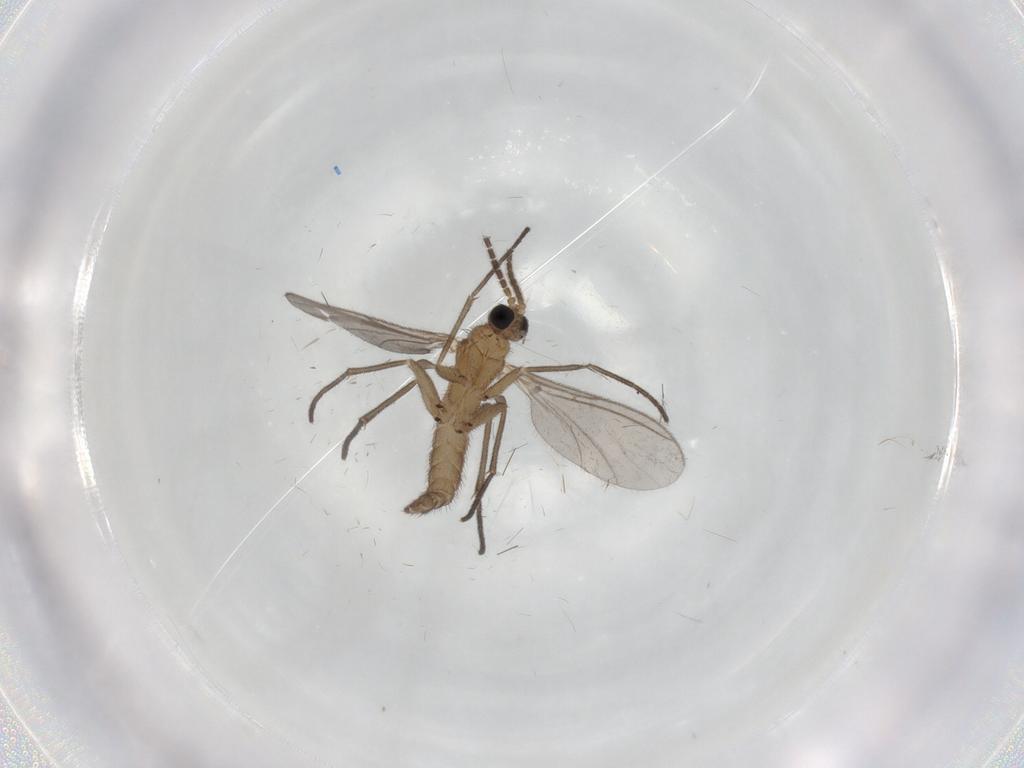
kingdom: Animalia
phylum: Arthropoda
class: Insecta
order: Diptera
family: Sciaridae
